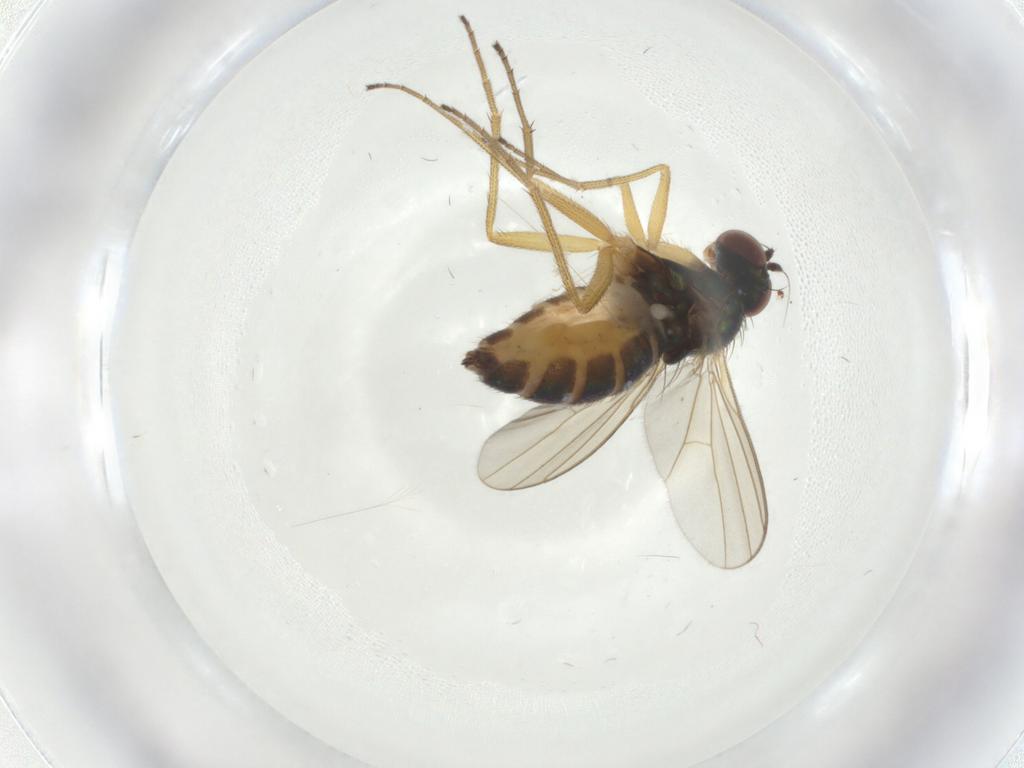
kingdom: Animalia
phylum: Arthropoda
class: Insecta
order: Diptera
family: Dolichopodidae
